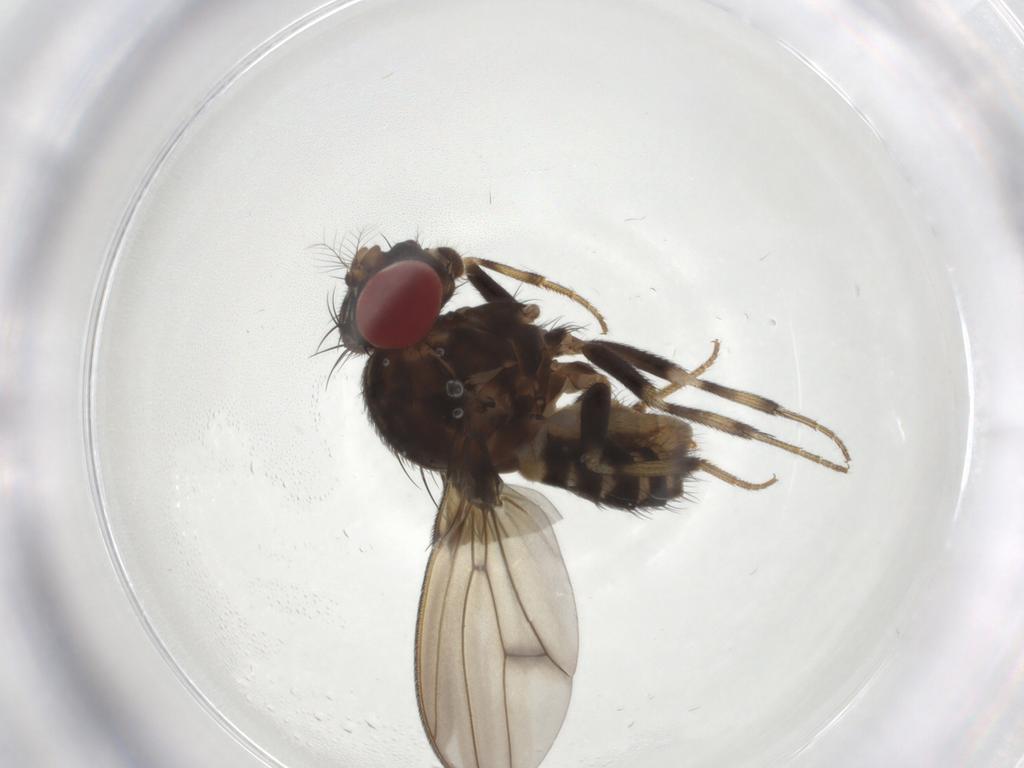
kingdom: Animalia
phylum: Arthropoda
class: Insecta
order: Diptera
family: Drosophilidae
